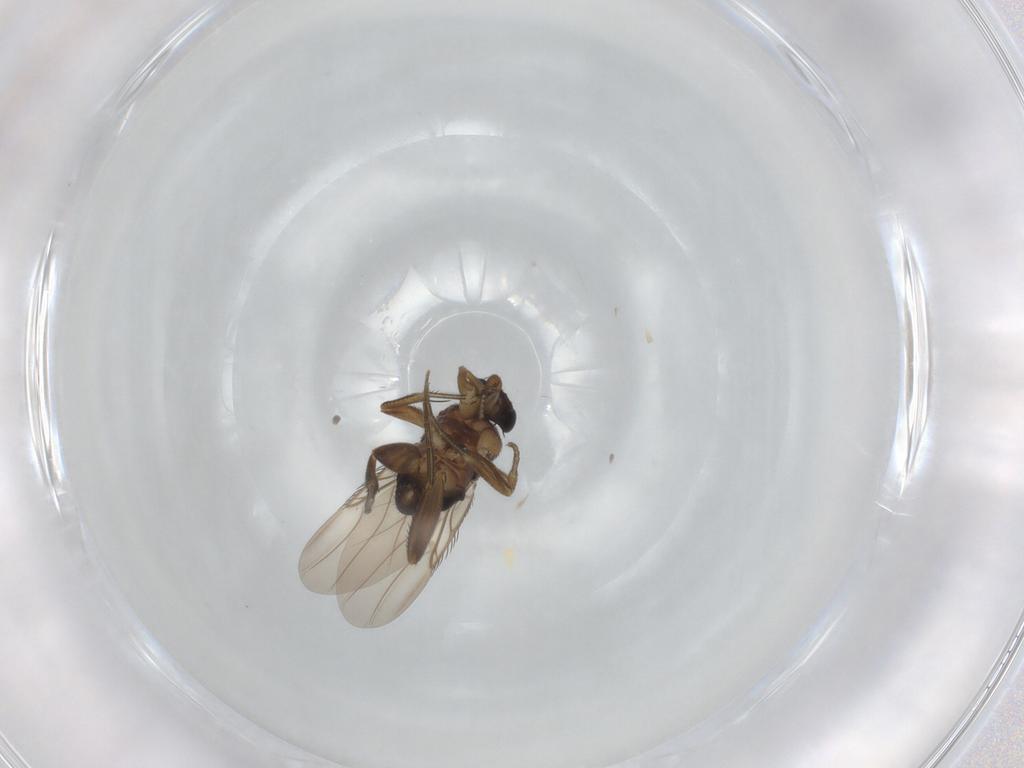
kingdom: Animalia
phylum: Arthropoda
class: Insecta
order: Diptera
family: Phoridae
